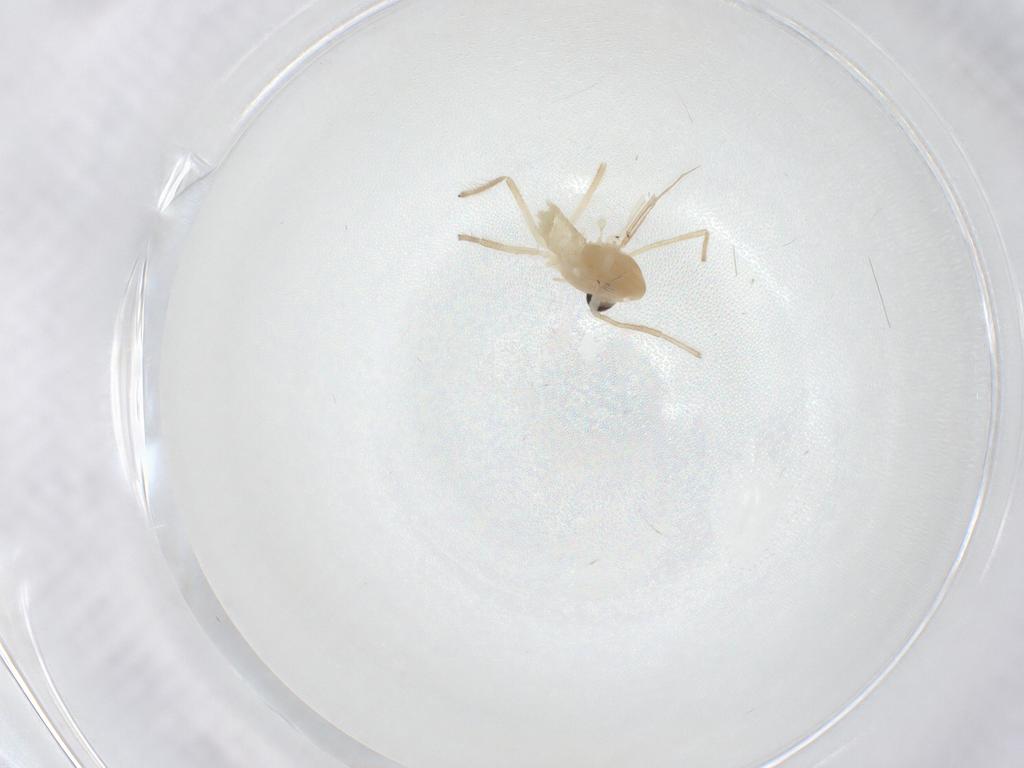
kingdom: Animalia
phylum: Arthropoda
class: Insecta
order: Diptera
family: Chironomidae
